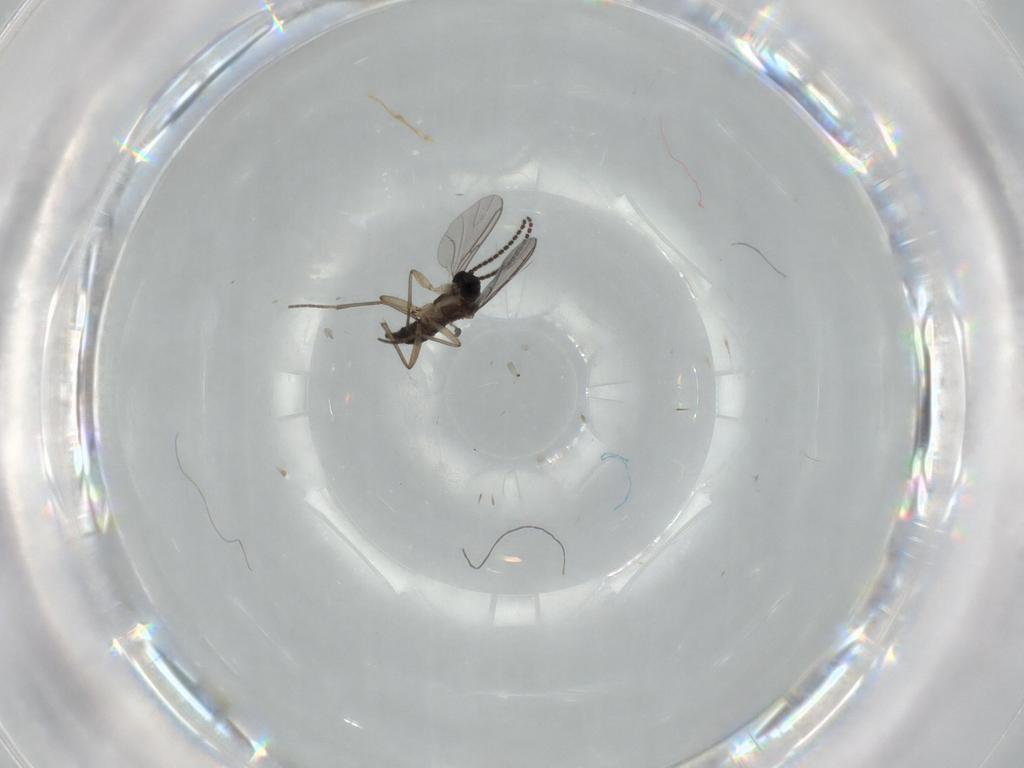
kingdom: Animalia
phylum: Arthropoda
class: Insecta
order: Diptera
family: Sciaridae
